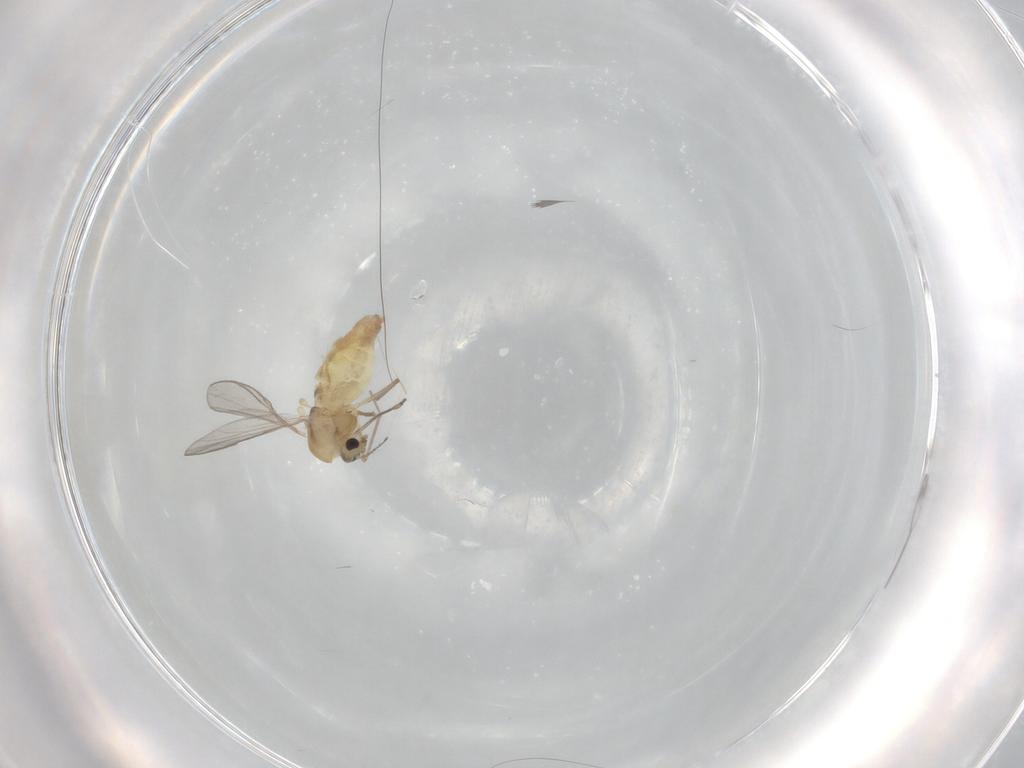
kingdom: Animalia
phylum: Arthropoda
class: Insecta
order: Diptera
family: Chironomidae
